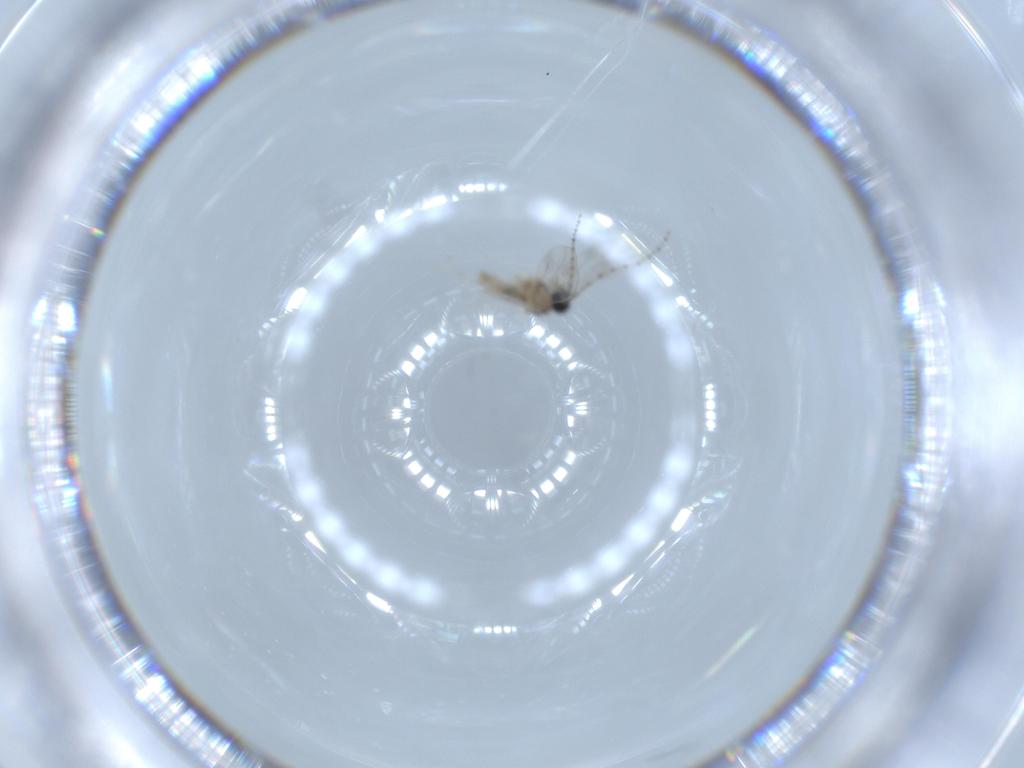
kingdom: Animalia
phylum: Arthropoda
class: Insecta
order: Diptera
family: Cecidomyiidae
